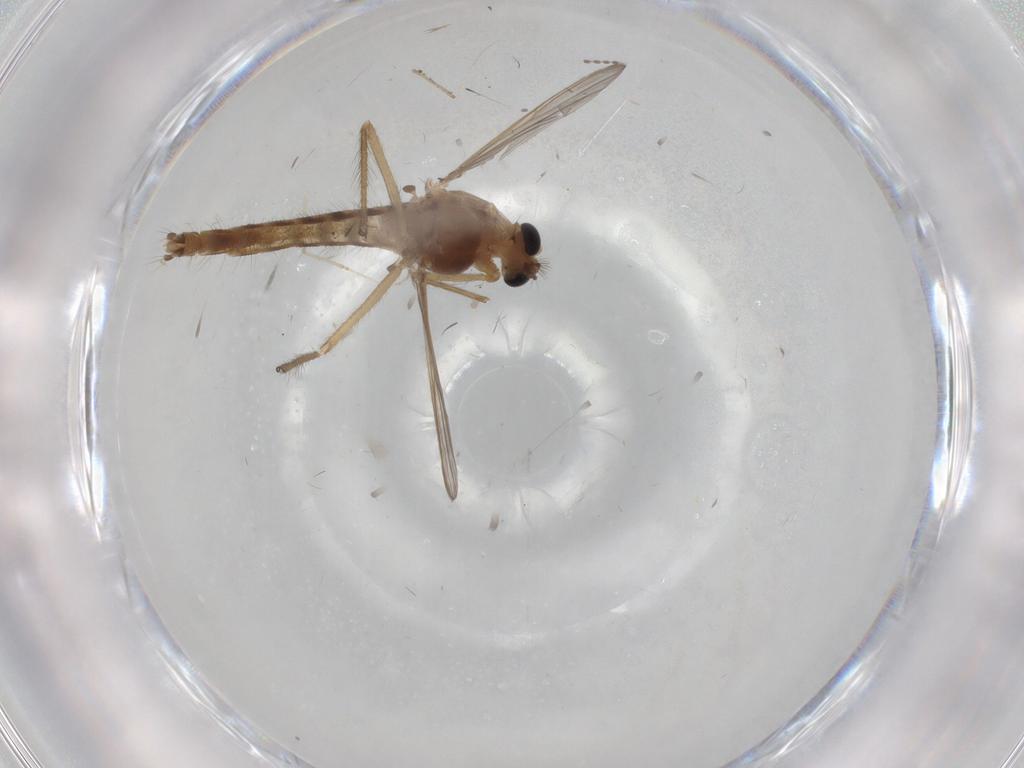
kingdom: Animalia
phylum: Arthropoda
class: Insecta
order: Diptera
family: Chironomidae
